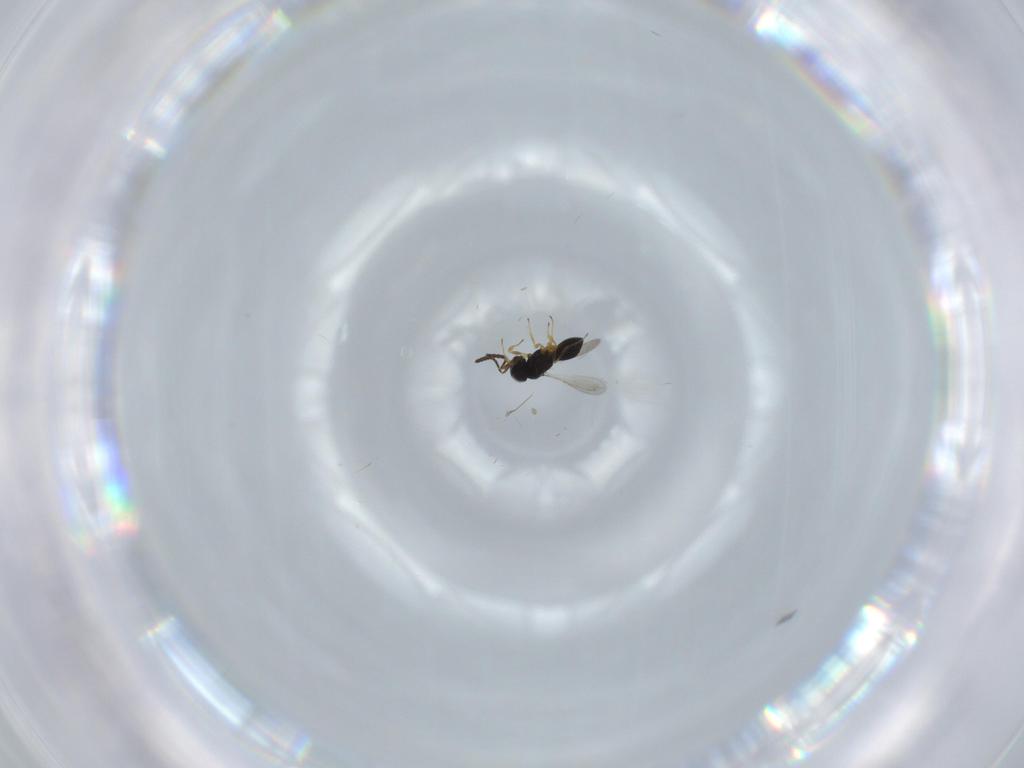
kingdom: Animalia
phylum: Arthropoda
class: Insecta
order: Hymenoptera
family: Scelionidae
